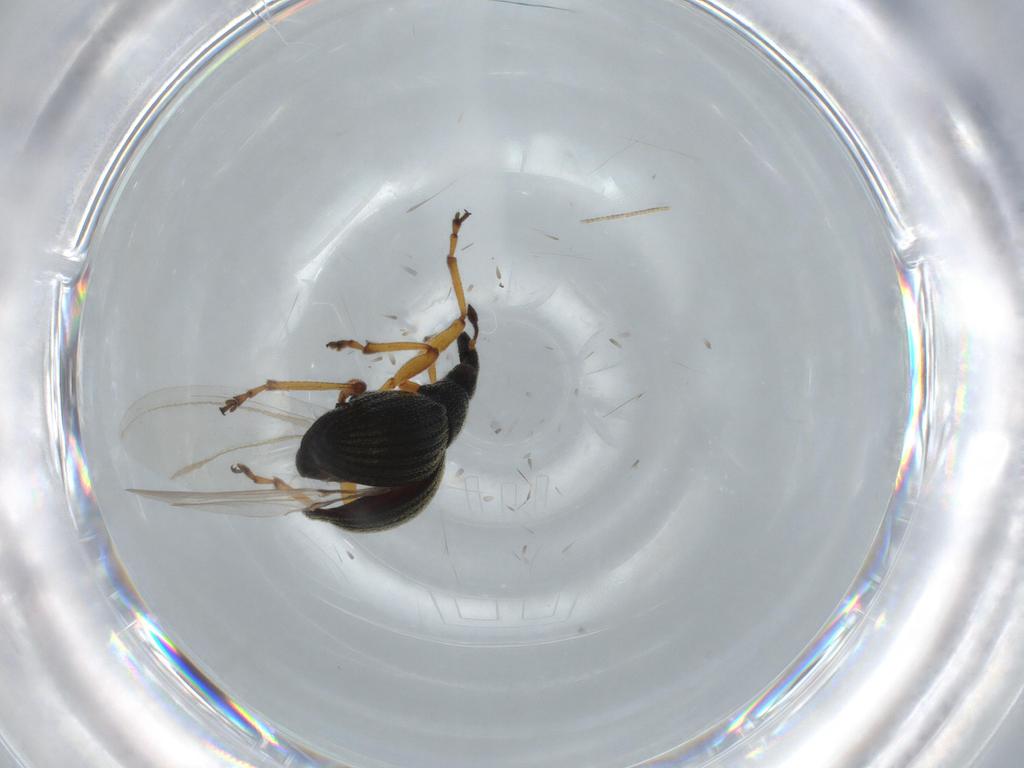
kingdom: Animalia
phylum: Arthropoda
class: Insecta
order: Coleoptera
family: Brentidae
